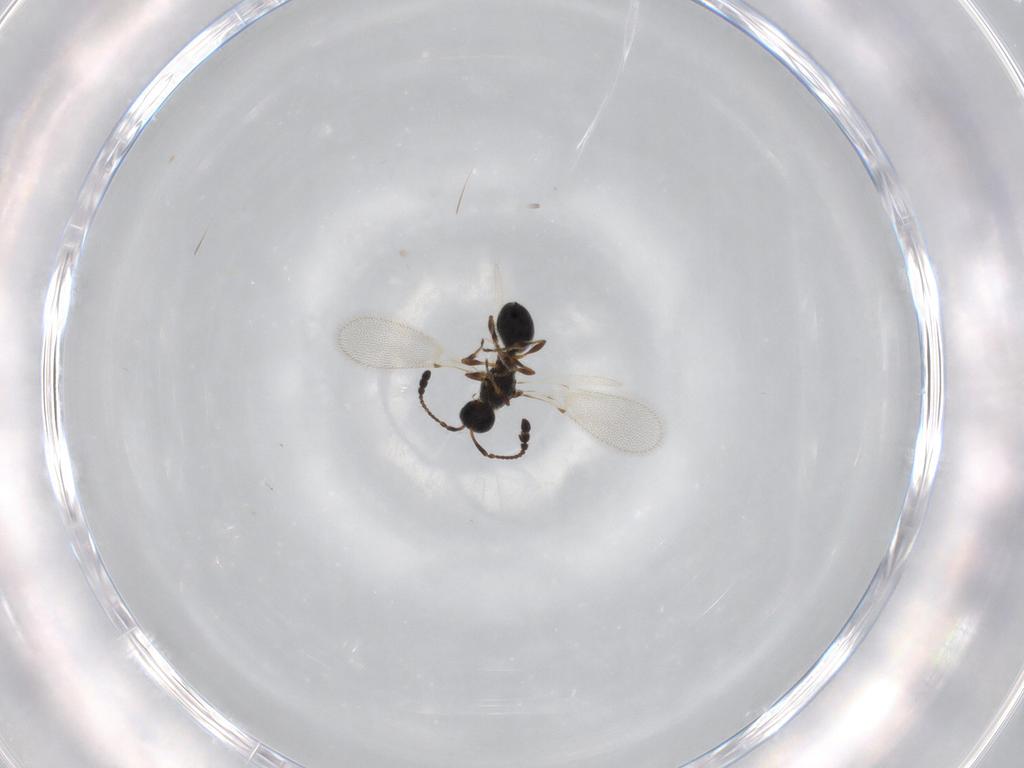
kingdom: Animalia
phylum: Arthropoda
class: Insecta
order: Hymenoptera
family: Diapriidae
